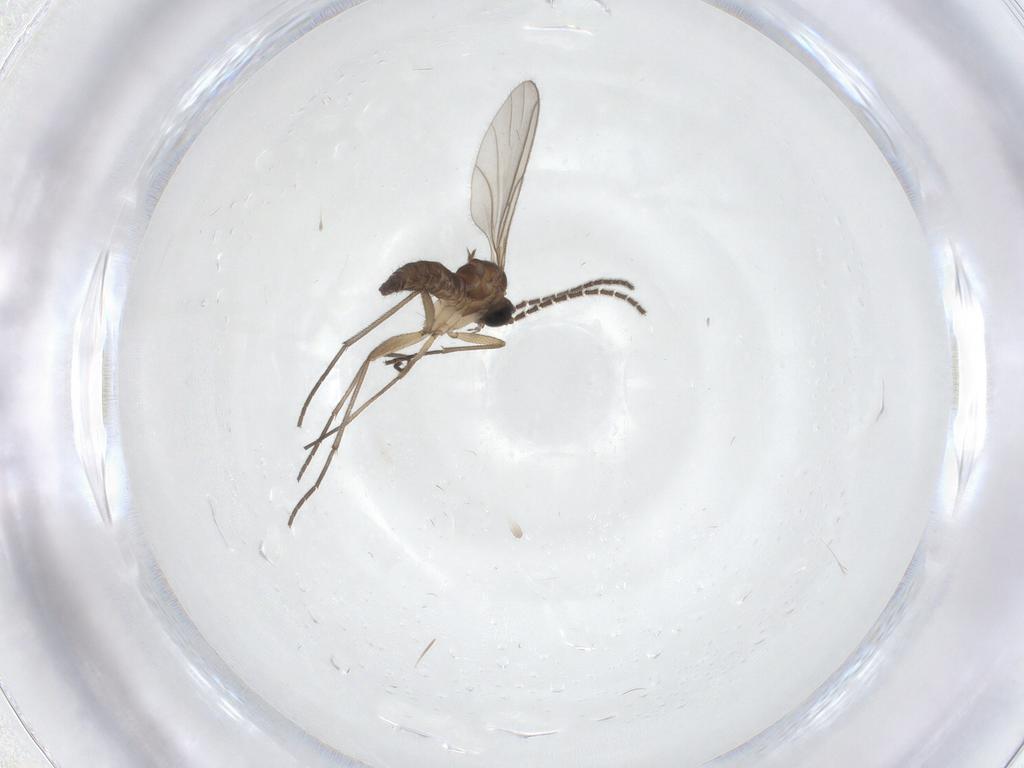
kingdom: Animalia
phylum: Arthropoda
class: Insecta
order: Diptera
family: Sciaridae
